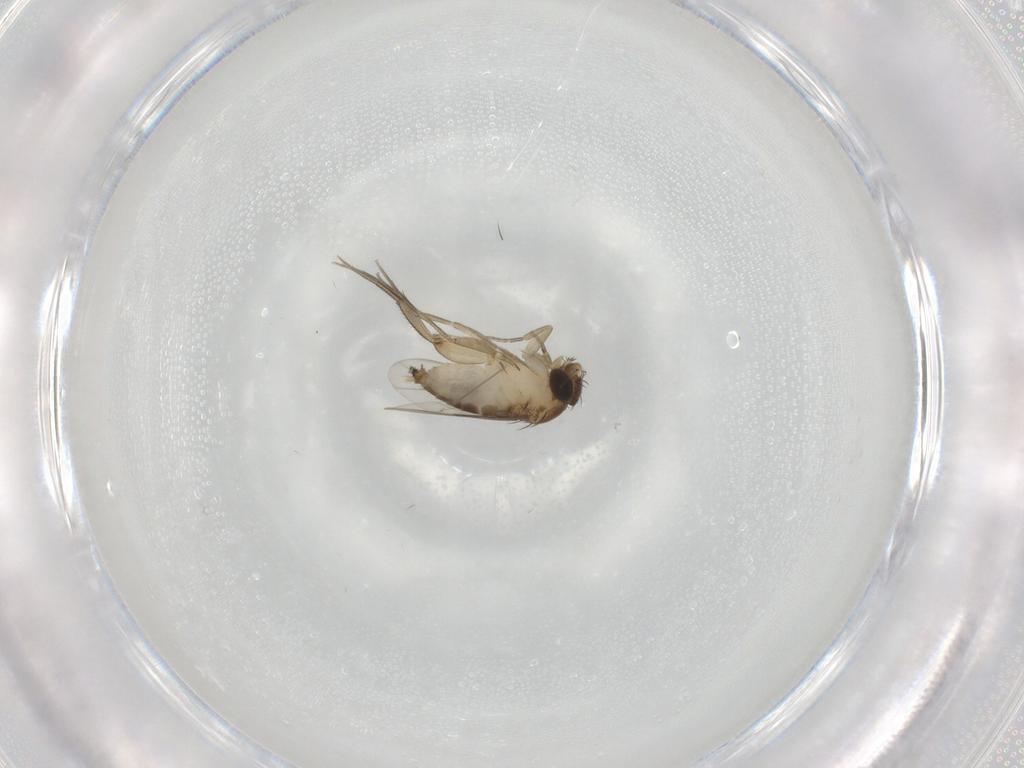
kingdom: Animalia
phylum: Arthropoda
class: Insecta
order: Diptera
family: Phoridae
